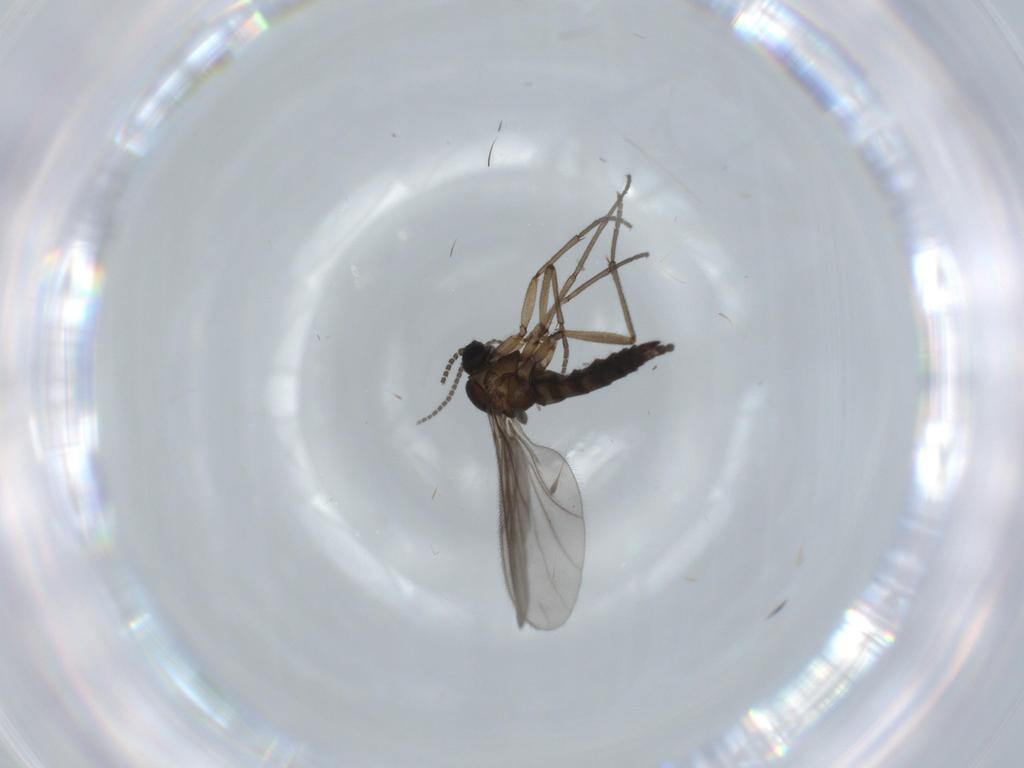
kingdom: Animalia
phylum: Arthropoda
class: Insecta
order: Diptera
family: Sciaridae
